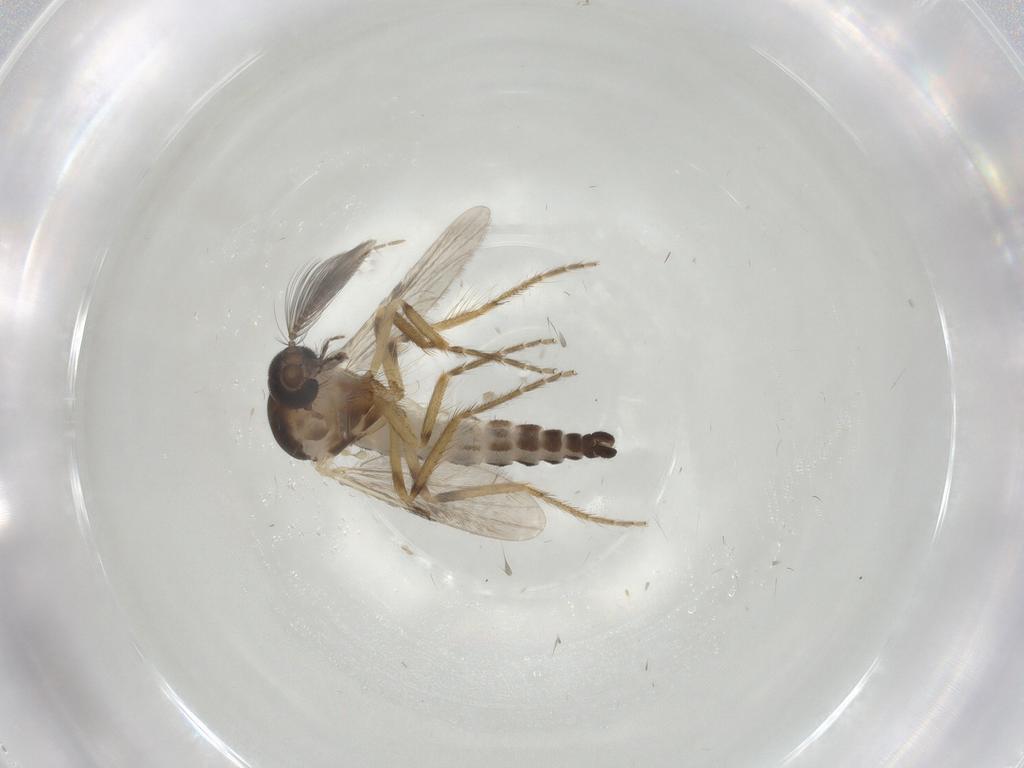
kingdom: Animalia
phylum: Arthropoda
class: Insecta
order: Diptera
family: Ceratopogonidae
